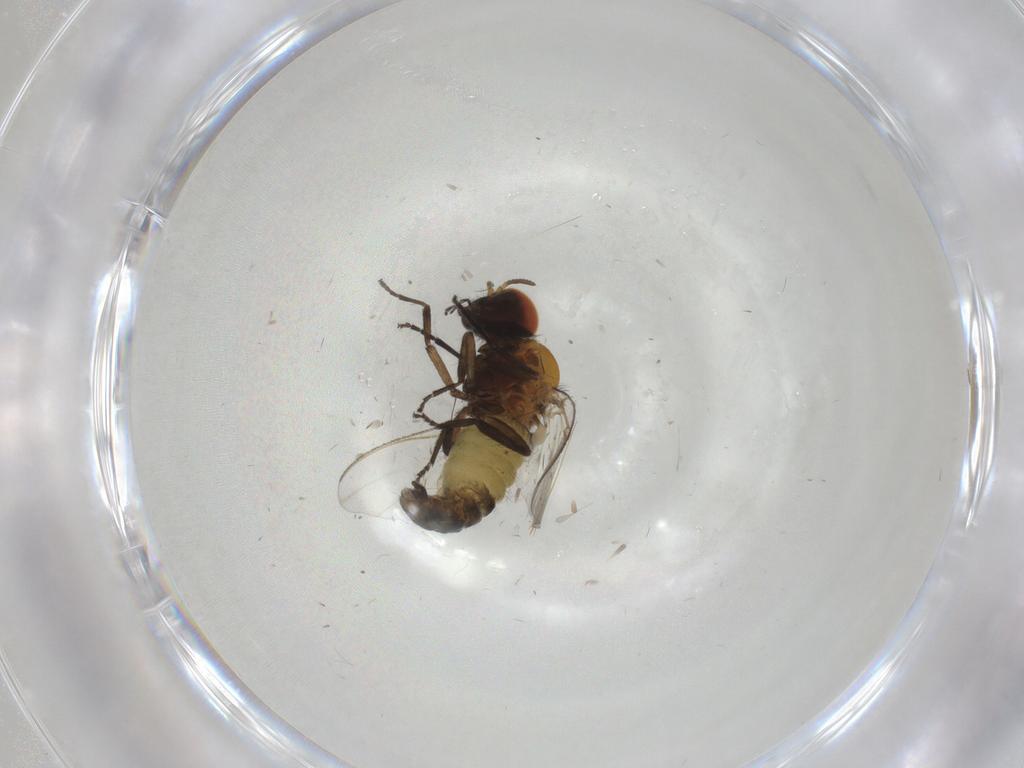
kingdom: Animalia
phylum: Arthropoda
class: Insecta
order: Diptera
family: Simuliidae
